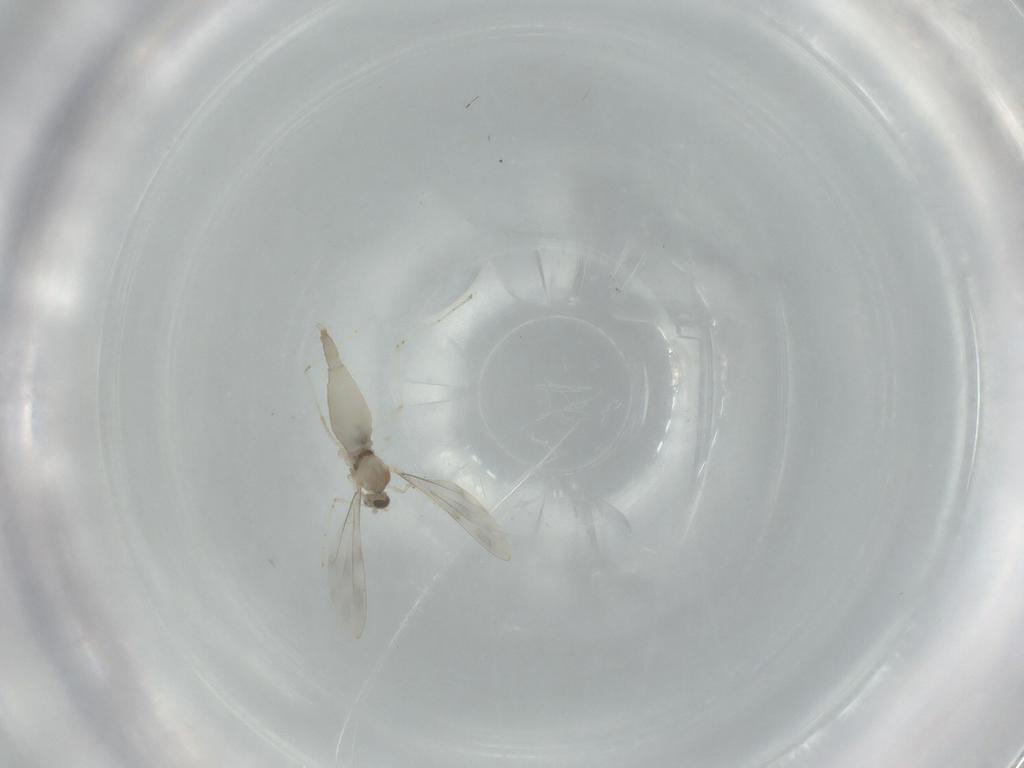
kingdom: Animalia
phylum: Arthropoda
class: Insecta
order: Diptera
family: Cecidomyiidae
